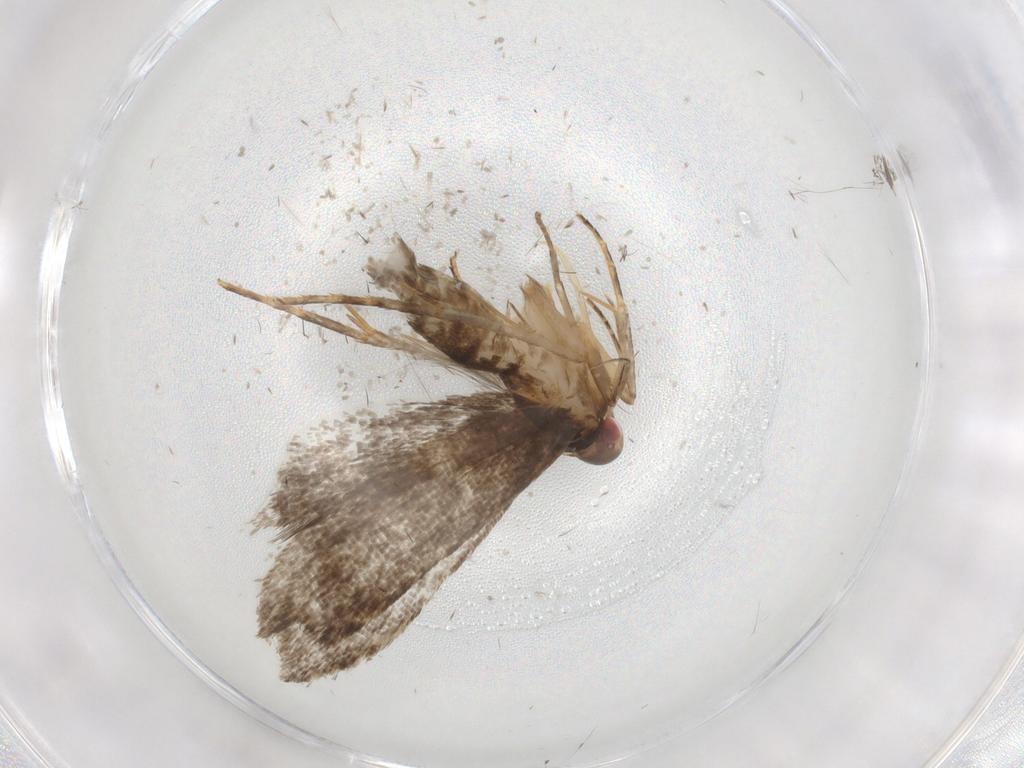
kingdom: Animalia
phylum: Arthropoda
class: Insecta
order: Lepidoptera
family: Gelechiidae
